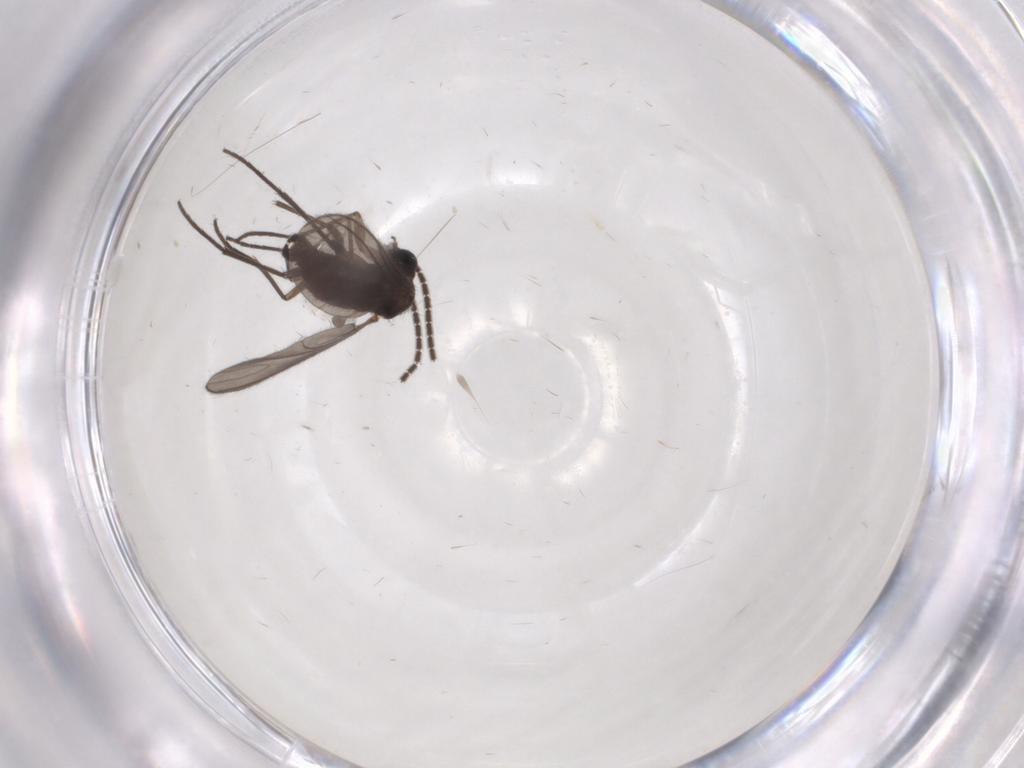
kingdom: Animalia
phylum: Arthropoda
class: Insecta
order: Diptera
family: Sciaridae
